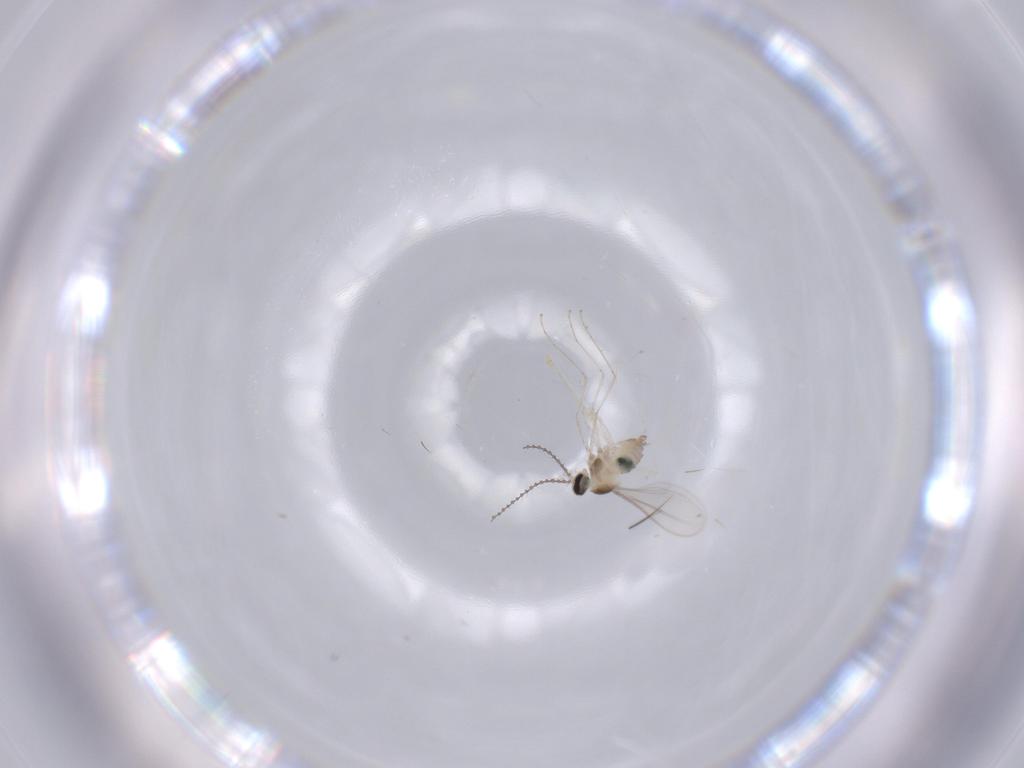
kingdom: Animalia
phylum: Arthropoda
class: Insecta
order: Diptera
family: Cecidomyiidae
